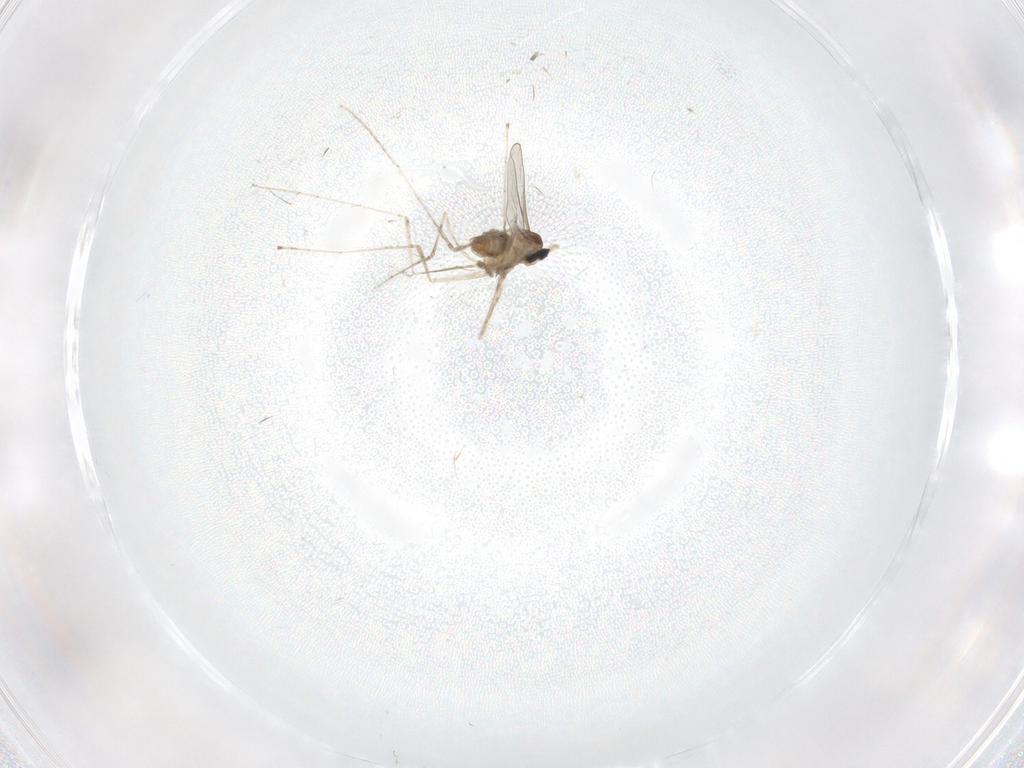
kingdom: Animalia
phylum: Arthropoda
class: Insecta
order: Diptera
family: Cecidomyiidae
